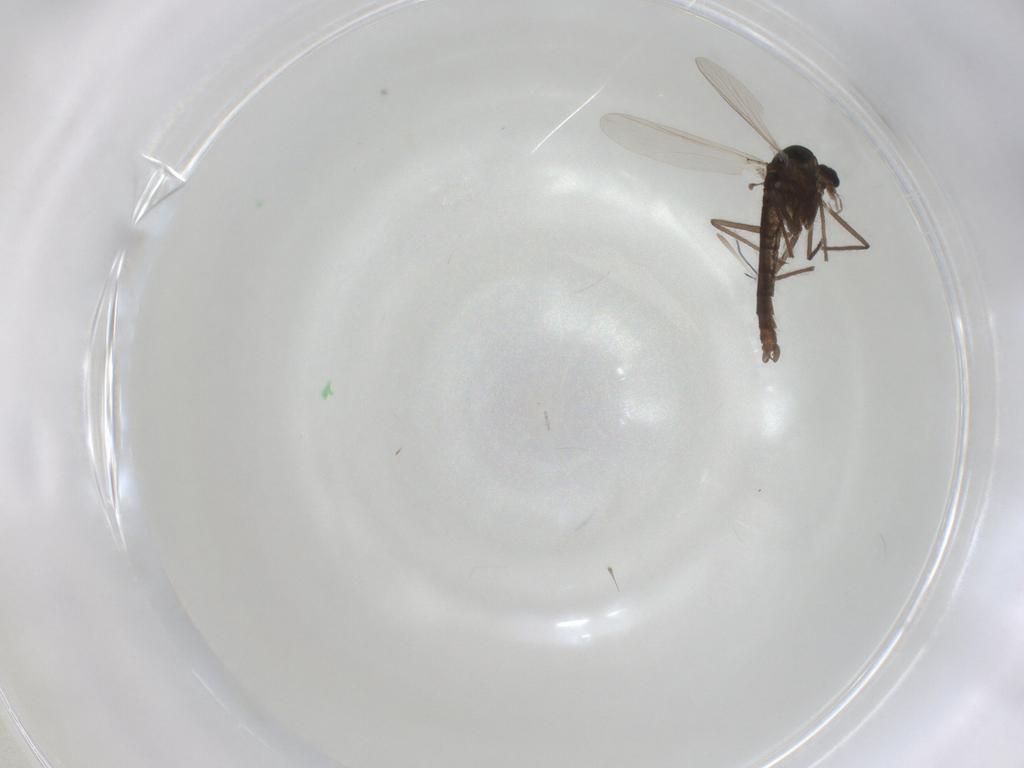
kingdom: Animalia
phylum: Arthropoda
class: Insecta
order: Diptera
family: Chironomidae
